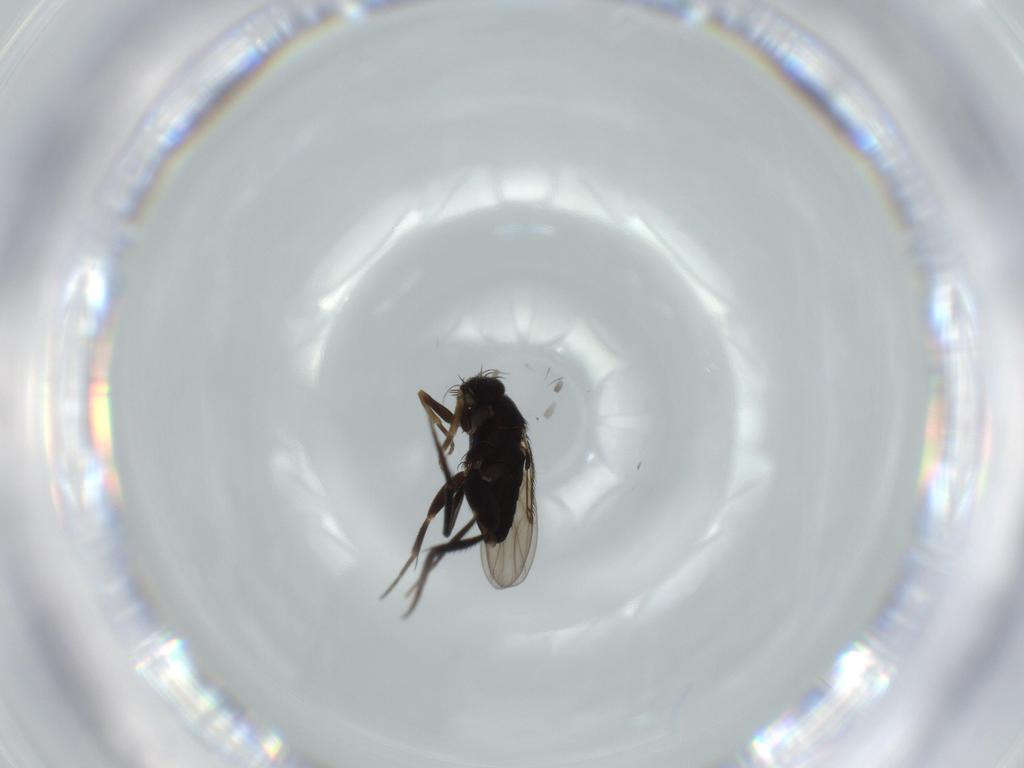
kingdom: Animalia
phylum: Arthropoda
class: Insecta
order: Diptera
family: Phoridae
